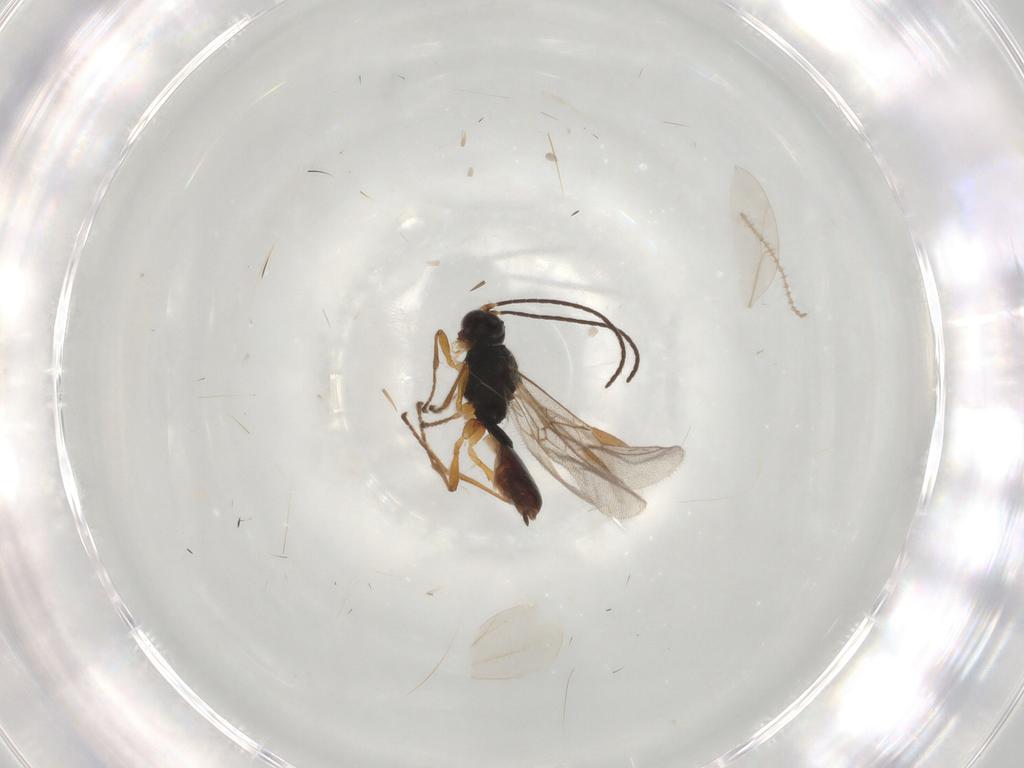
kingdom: Animalia
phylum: Arthropoda
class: Insecta
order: Hymenoptera
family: Braconidae
